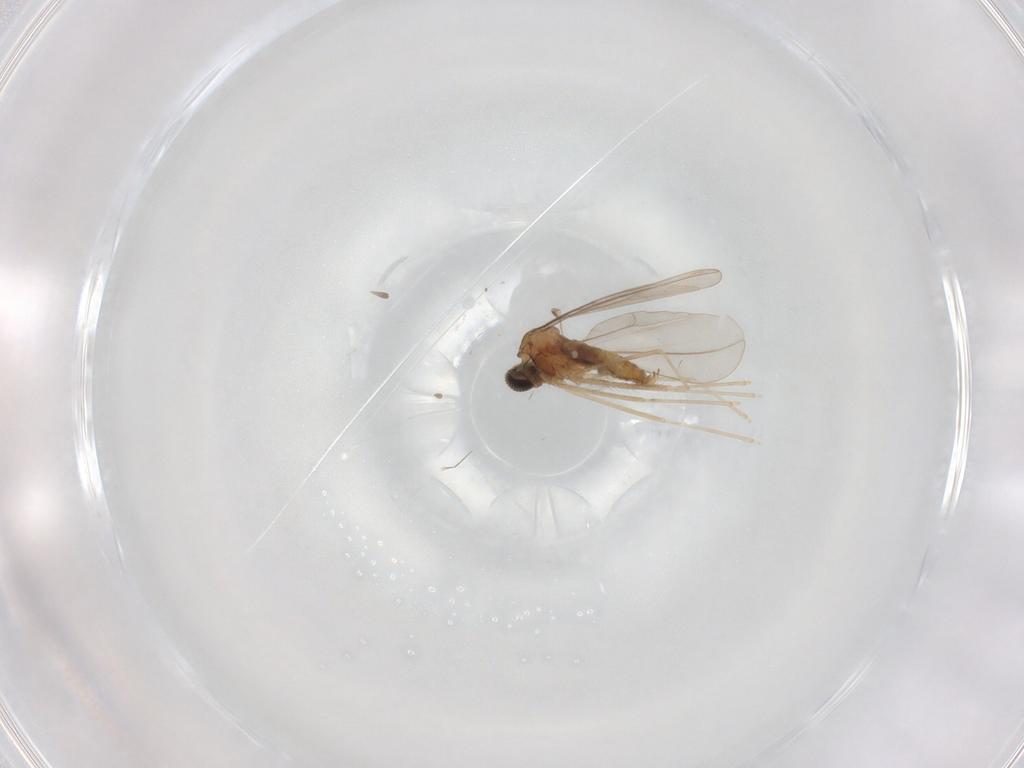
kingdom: Animalia
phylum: Arthropoda
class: Insecta
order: Diptera
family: Cecidomyiidae
